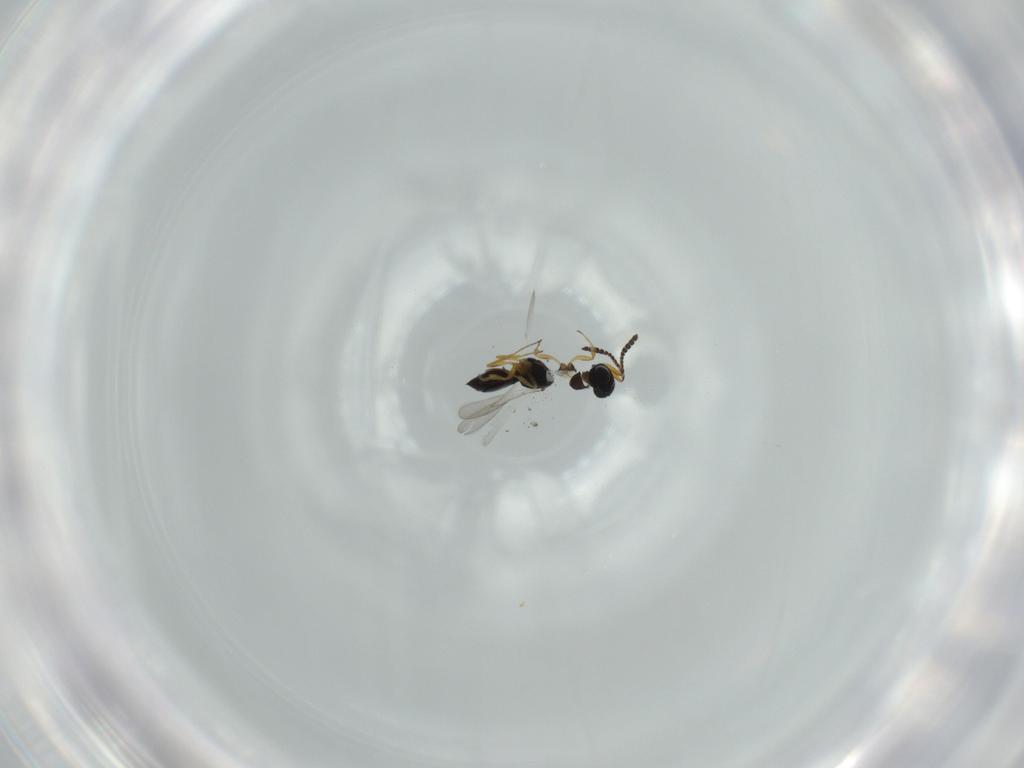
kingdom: Animalia
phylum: Arthropoda
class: Insecta
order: Hymenoptera
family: Scelionidae
